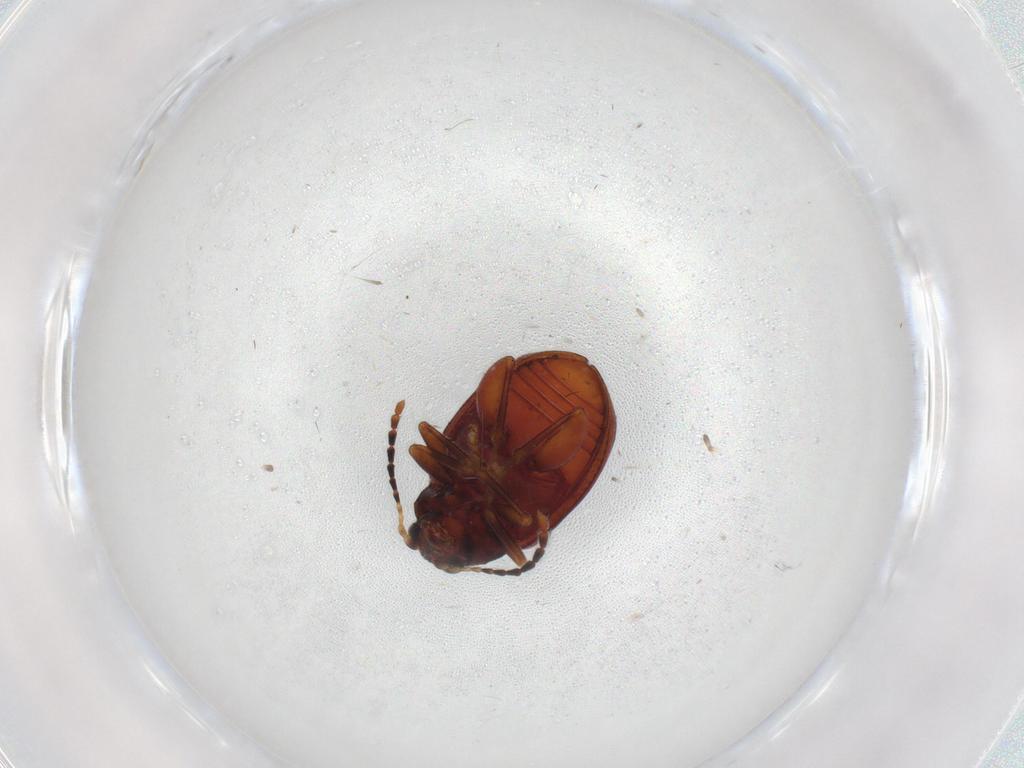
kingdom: Animalia
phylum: Arthropoda
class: Insecta
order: Coleoptera
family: Chrysomelidae
